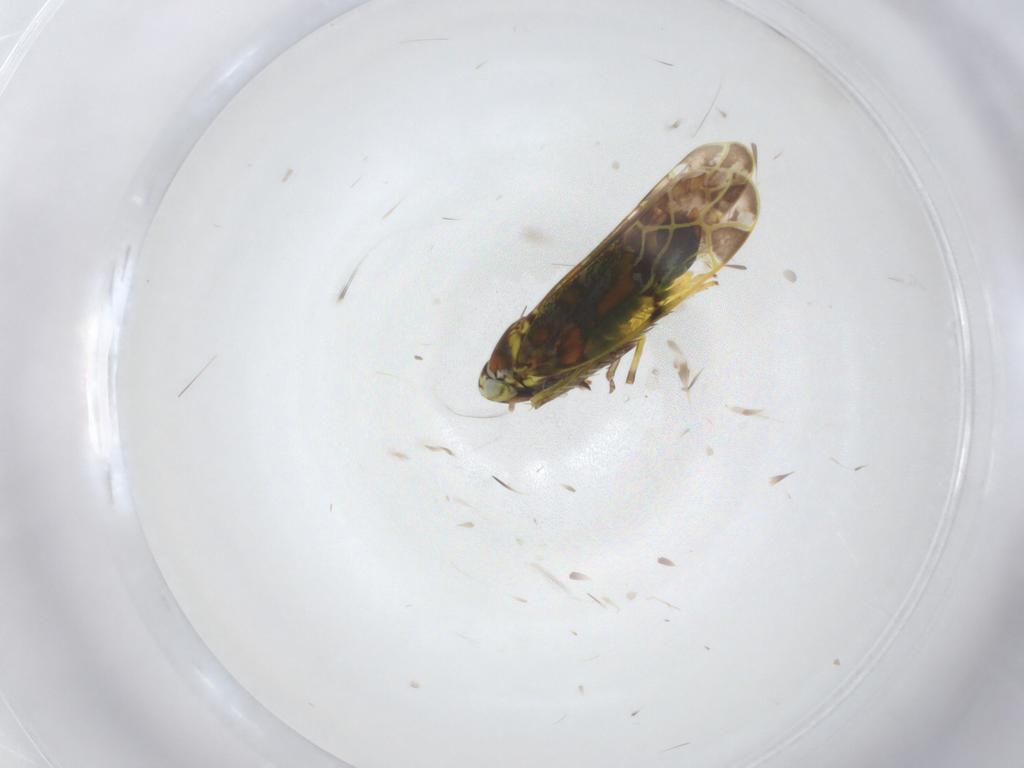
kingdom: Animalia
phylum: Arthropoda
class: Insecta
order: Hemiptera
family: Cicadellidae
